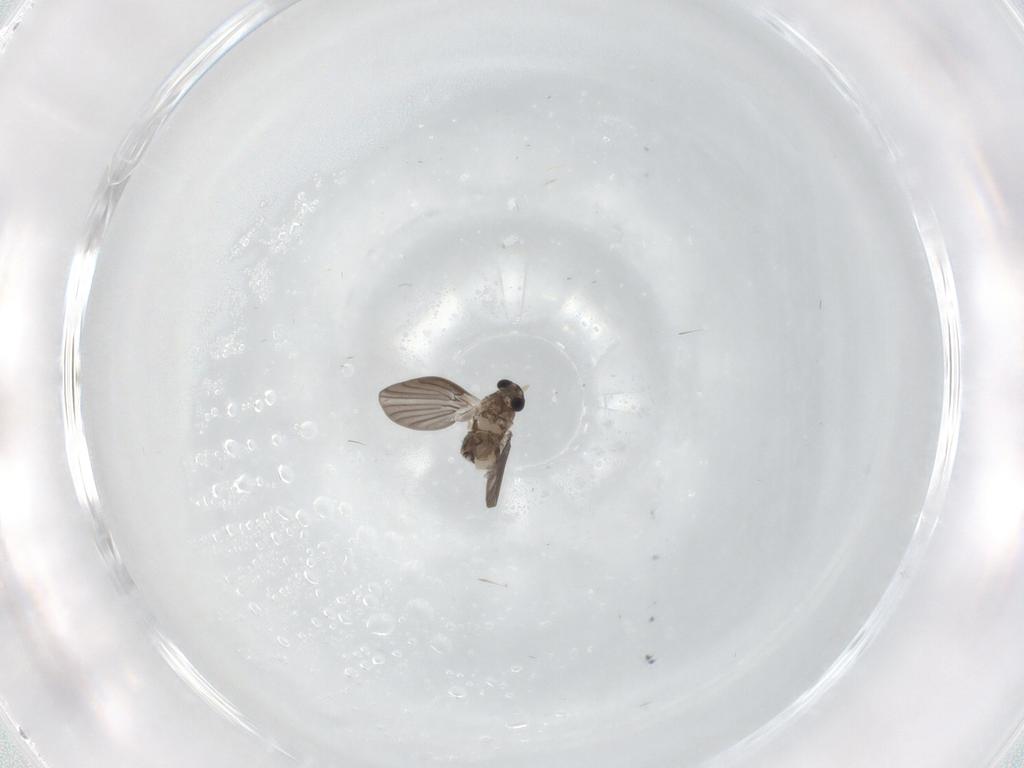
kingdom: Animalia
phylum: Arthropoda
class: Insecta
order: Diptera
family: Psychodidae
